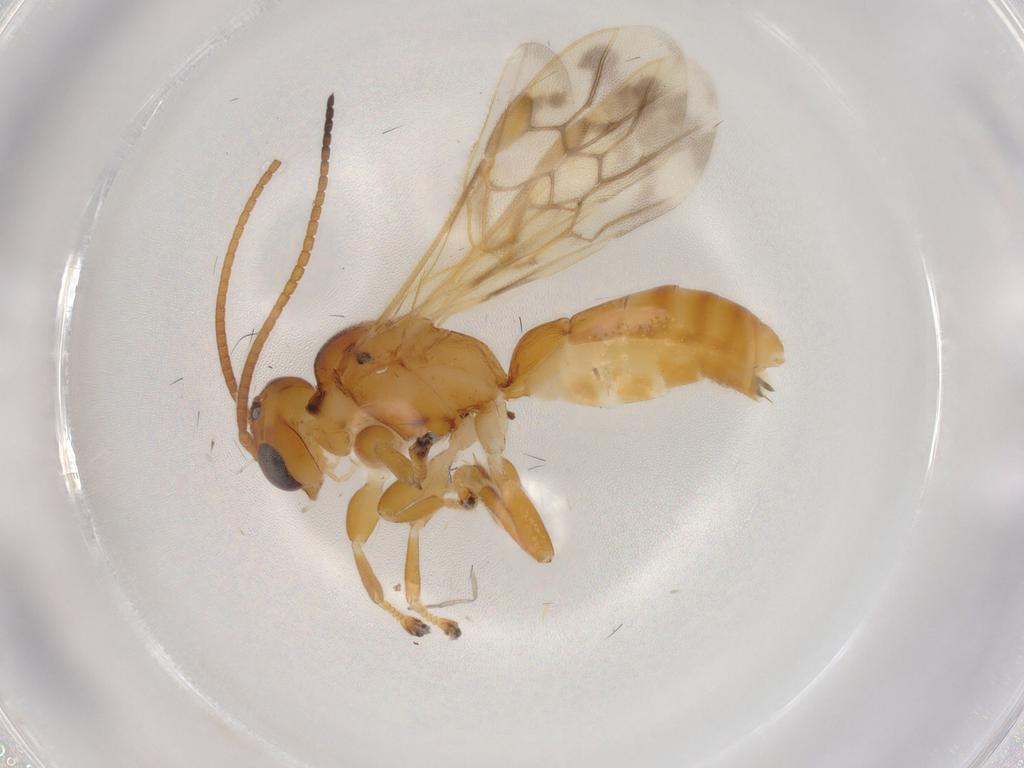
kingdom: Animalia
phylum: Arthropoda
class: Insecta
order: Hymenoptera
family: Braconidae
